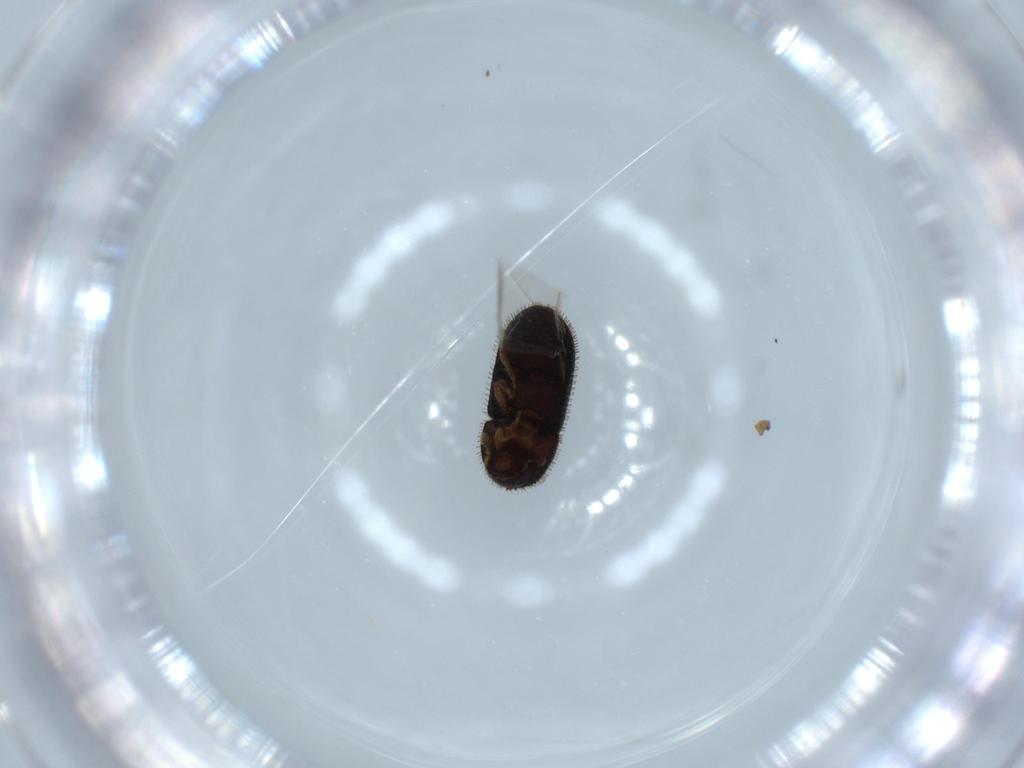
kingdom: Animalia
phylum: Arthropoda
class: Insecta
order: Coleoptera
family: Curculionidae
